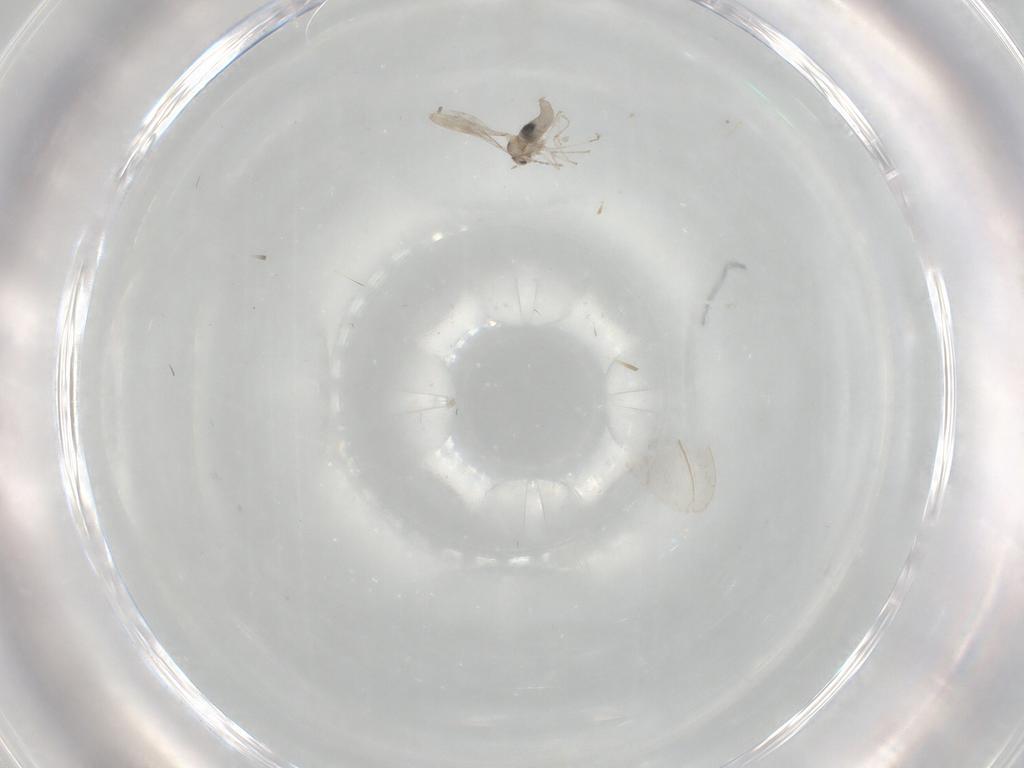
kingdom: Animalia
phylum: Arthropoda
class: Insecta
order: Diptera
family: Cecidomyiidae
